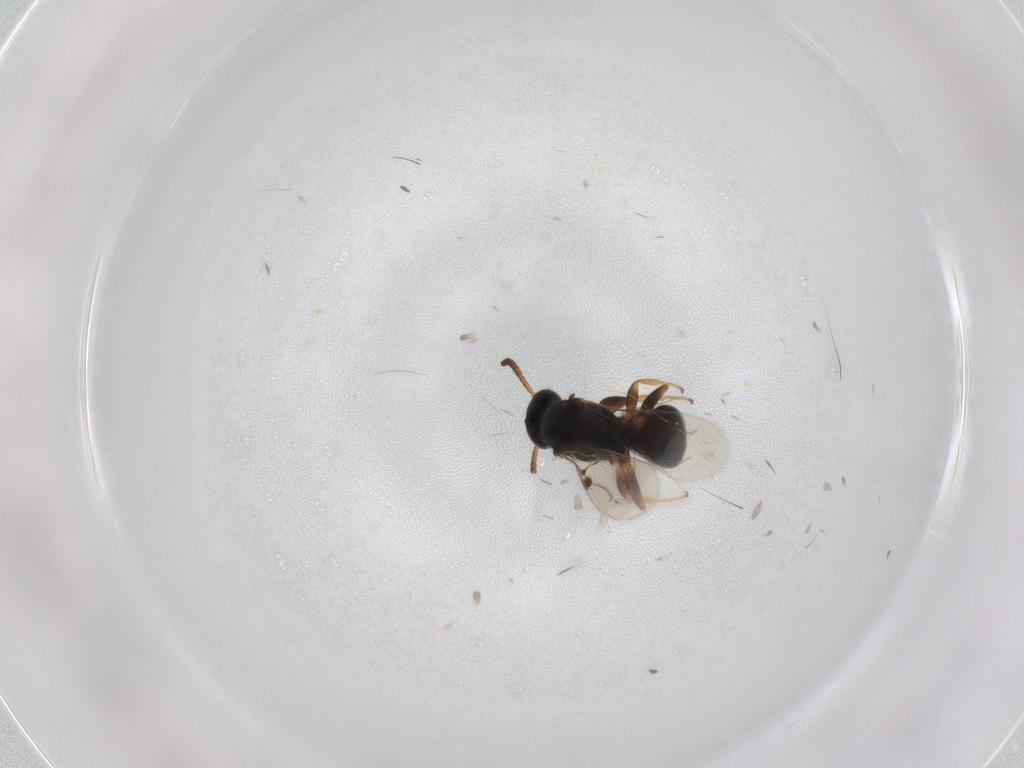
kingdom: Animalia
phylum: Arthropoda
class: Insecta
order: Hymenoptera
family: Bethylidae
